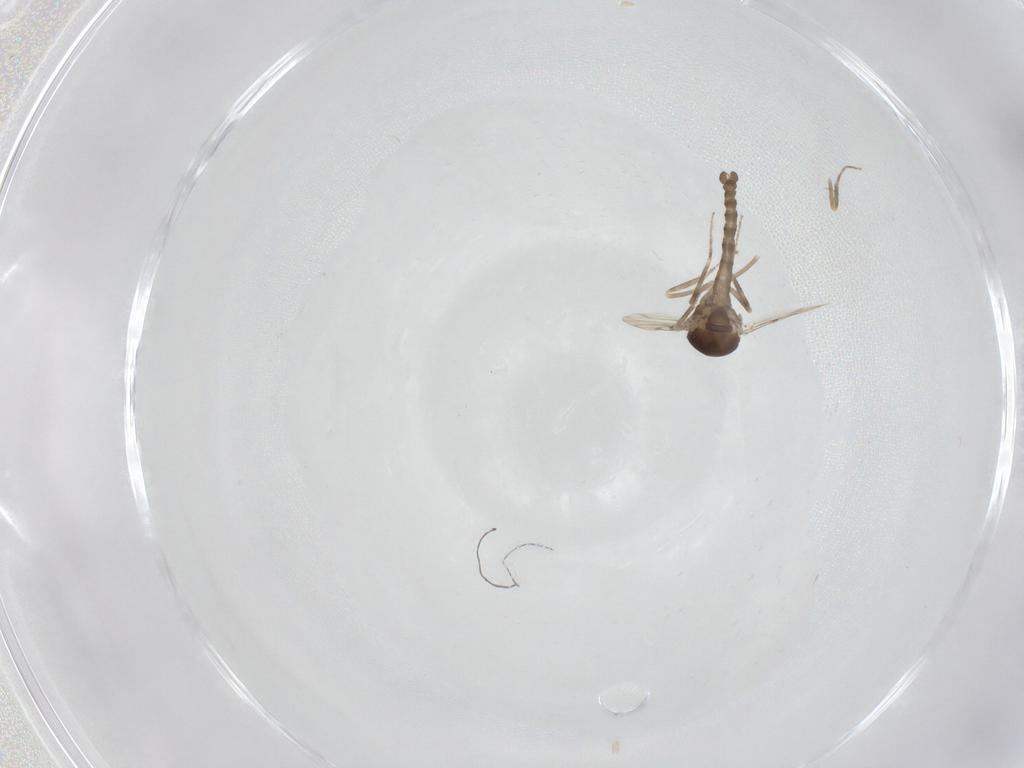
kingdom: Animalia
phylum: Arthropoda
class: Insecta
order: Diptera
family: Ceratopogonidae
